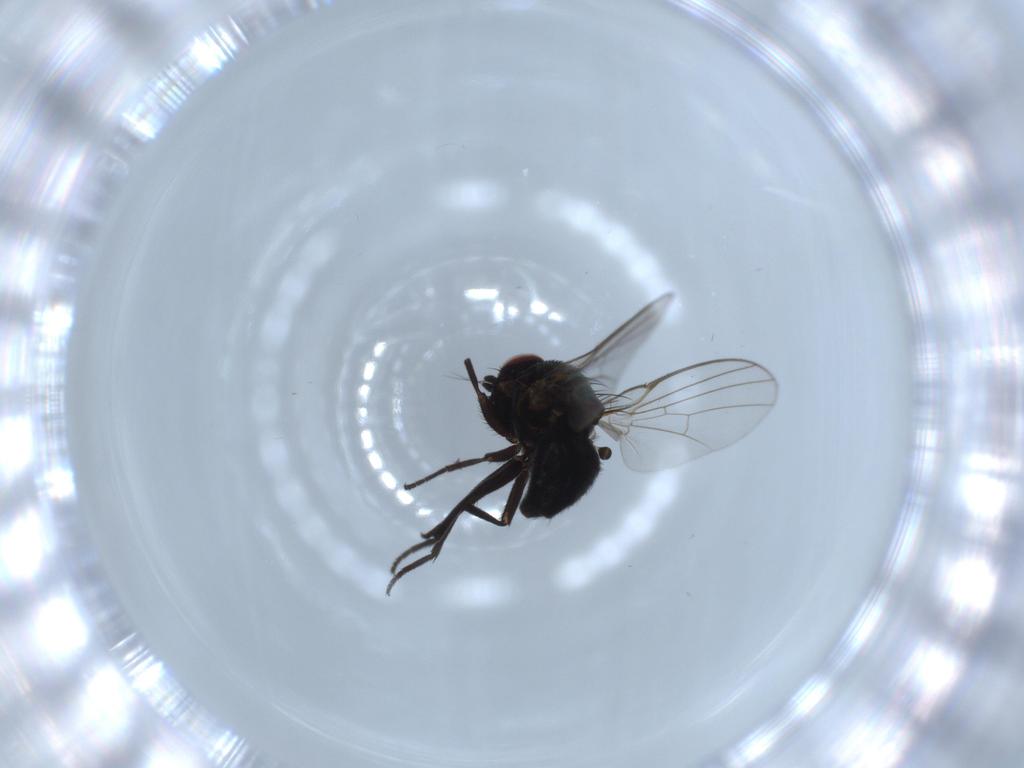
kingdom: Animalia
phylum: Arthropoda
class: Insecta
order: Diptera
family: Agromyzidae
